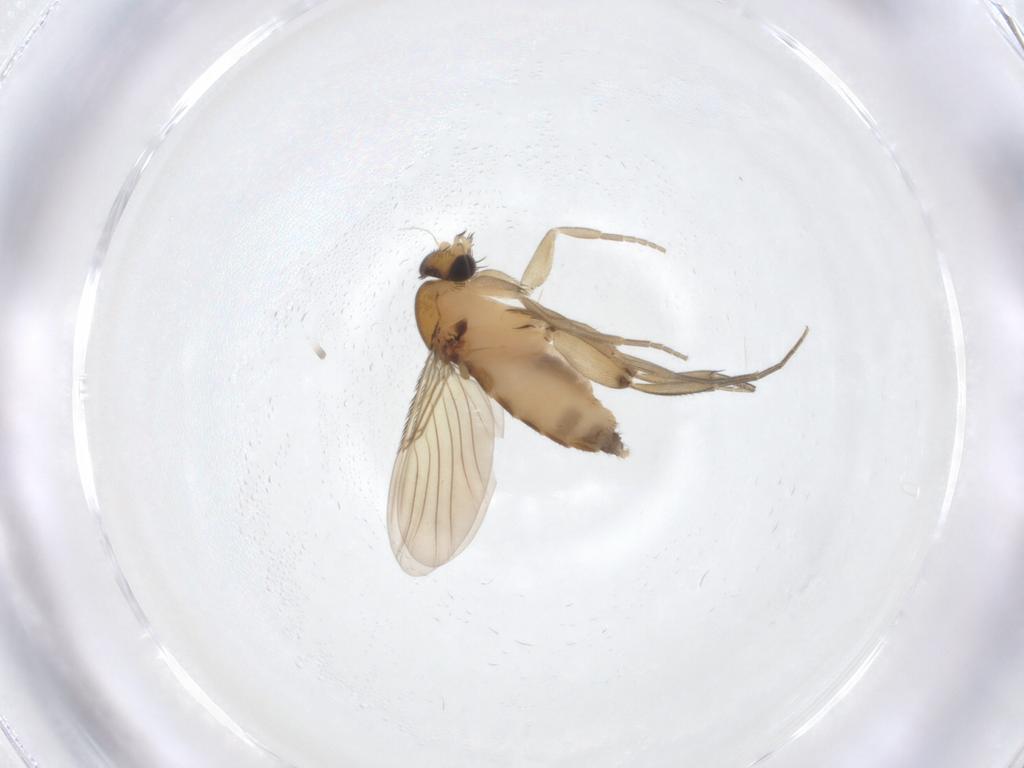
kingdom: Animalia
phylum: Arthropoda
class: Insecta
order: Diptera
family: Phoridae
